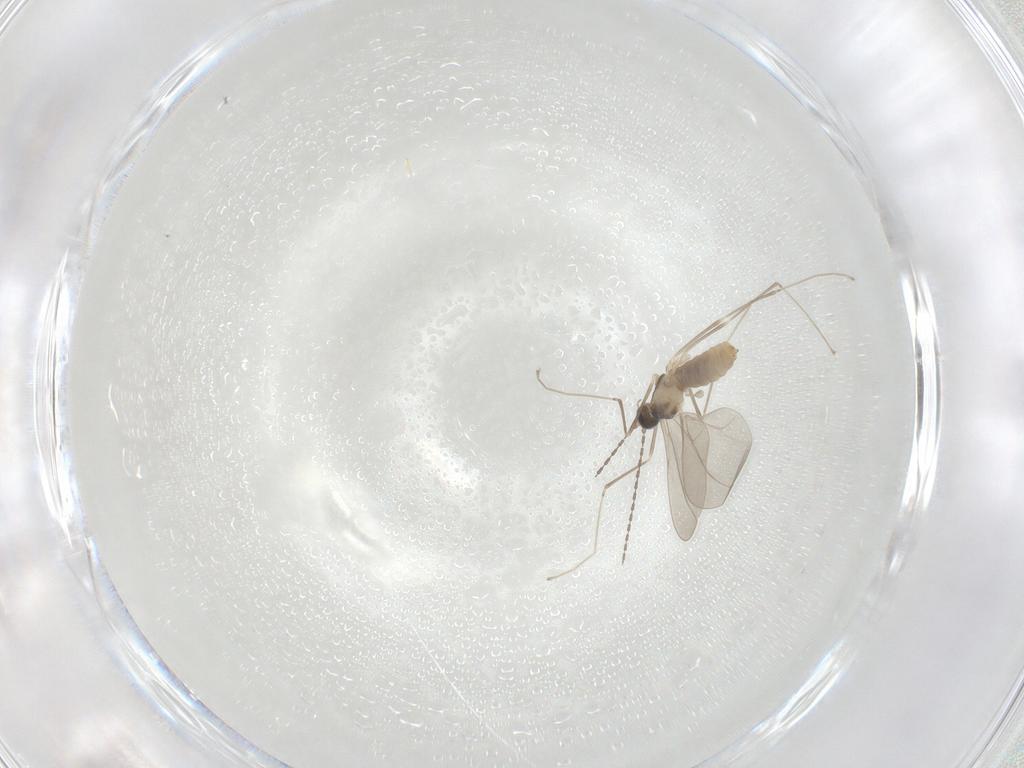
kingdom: Animalia
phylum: Arthropoda
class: Insecta
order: Diptera
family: Cecidomyiidae
